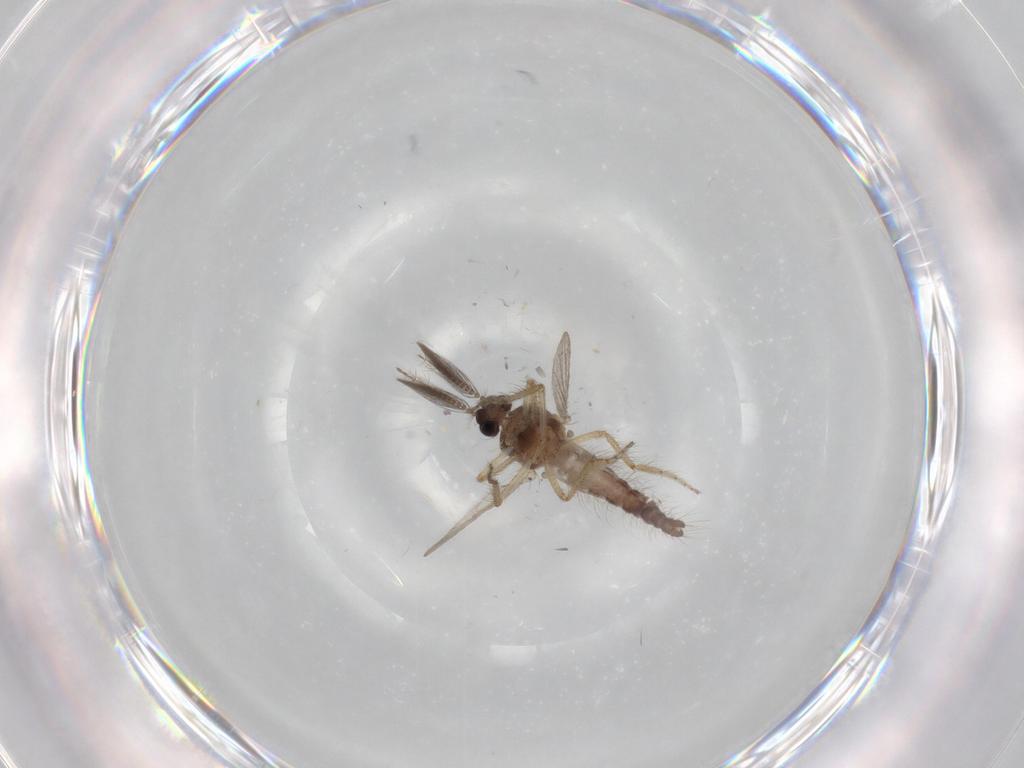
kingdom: Animalia
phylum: Arthropoda
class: Insecta
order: Diptera
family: Ceratopogonidae
